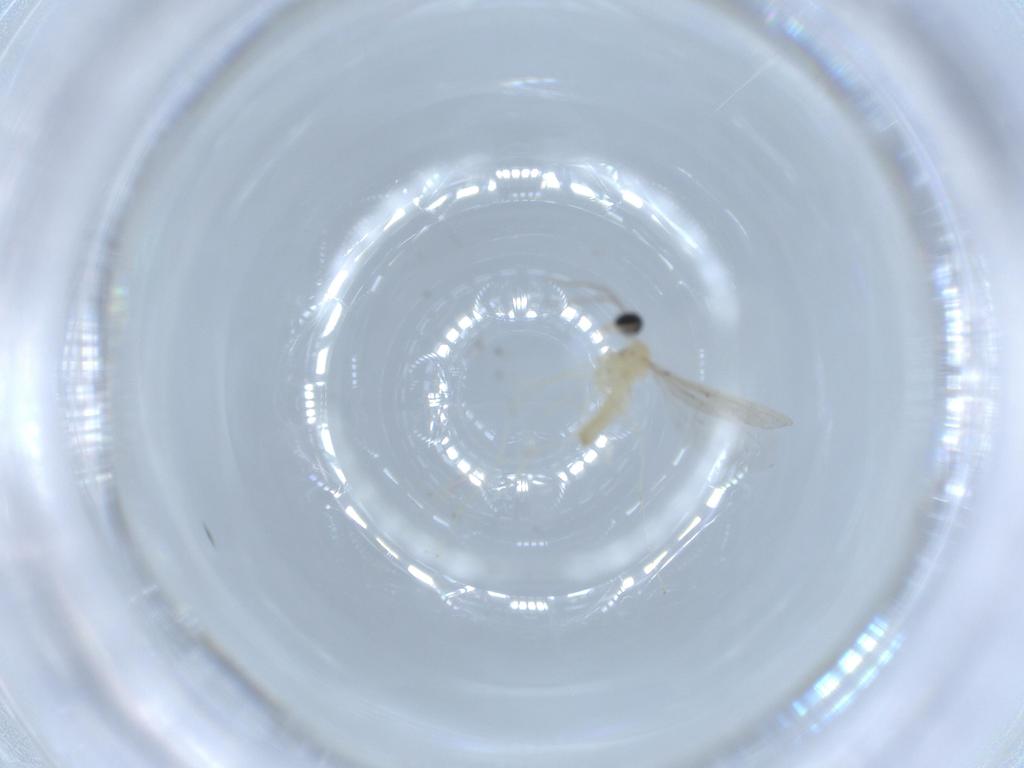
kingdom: Animalia
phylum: Arthropoda
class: Insecta
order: Diptera
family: Cecidomyiidae
